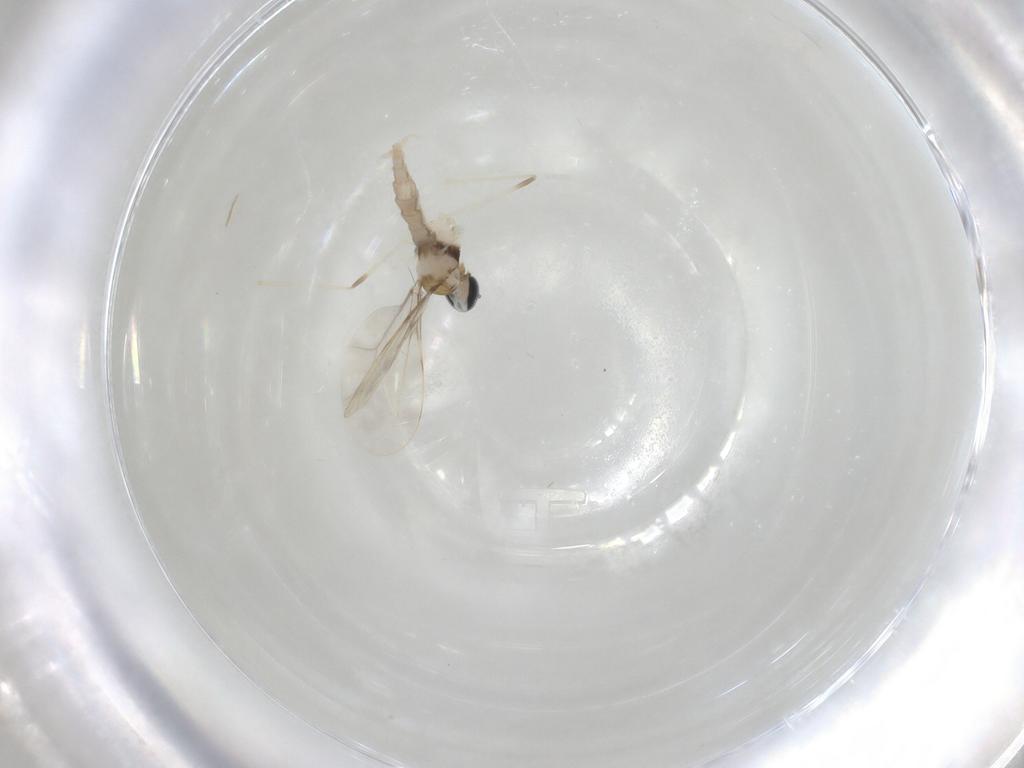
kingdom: Animalia
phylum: Arthropoda
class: Insecta
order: Diptera
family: Cecidomyiidae
